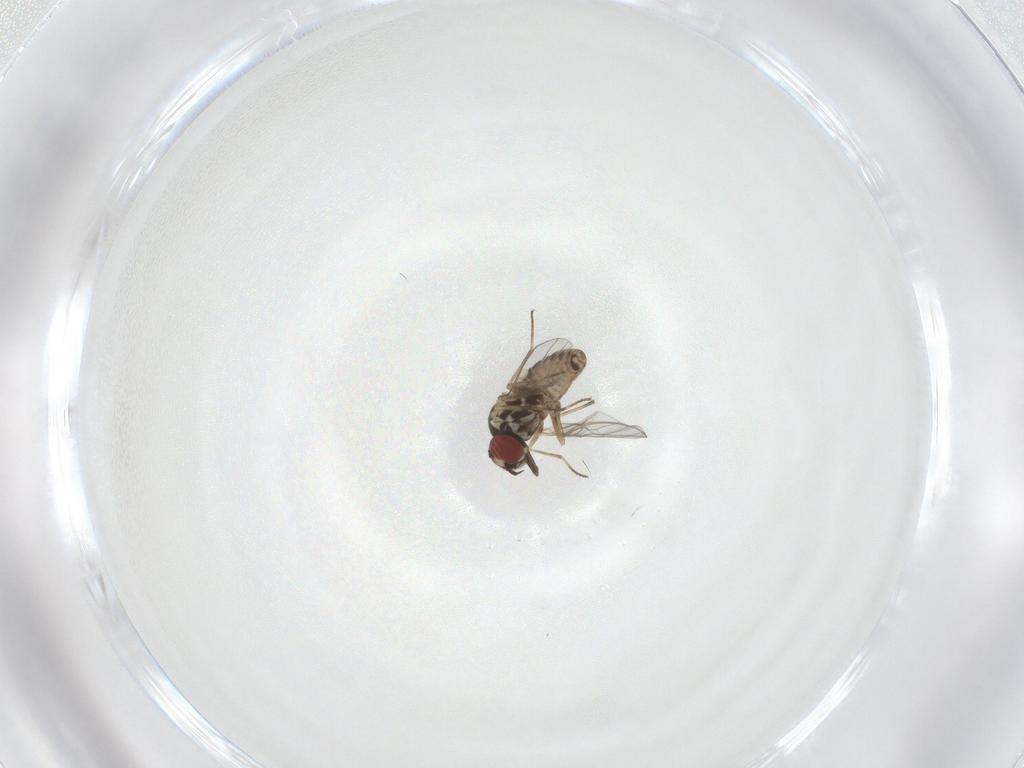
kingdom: Animalia
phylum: Arthropoda
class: Insecta
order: Diptera
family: Mythicomyiidae
